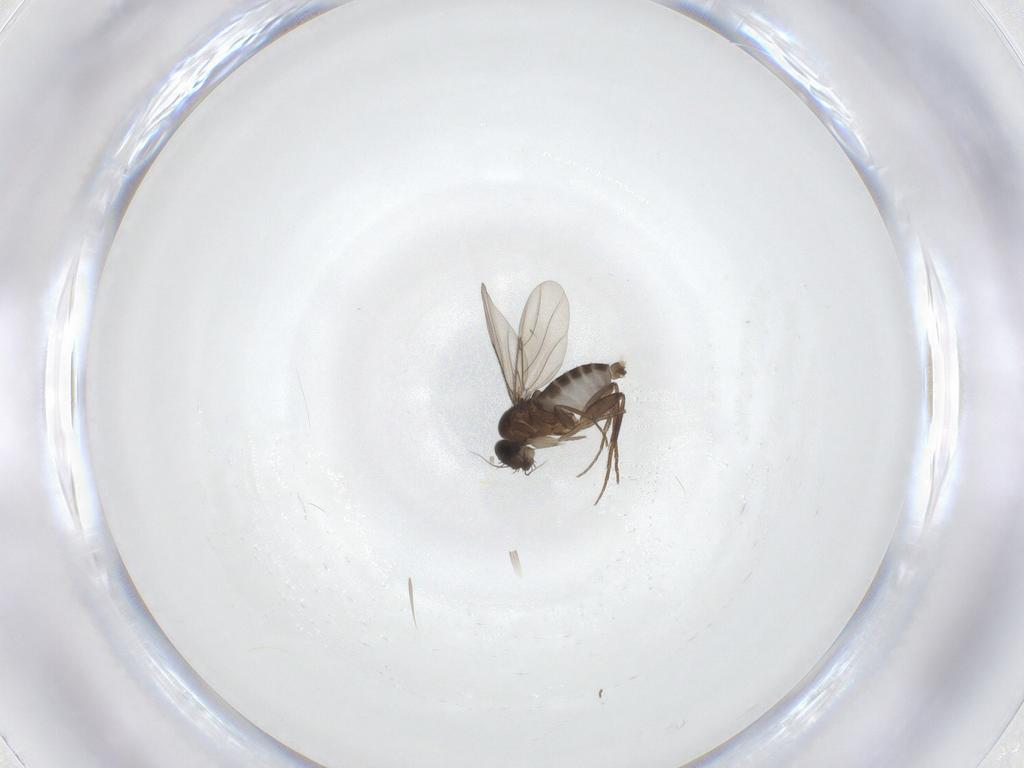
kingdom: Animalia
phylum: Arthropoda
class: Insecta
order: Diptera
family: Phoridae
